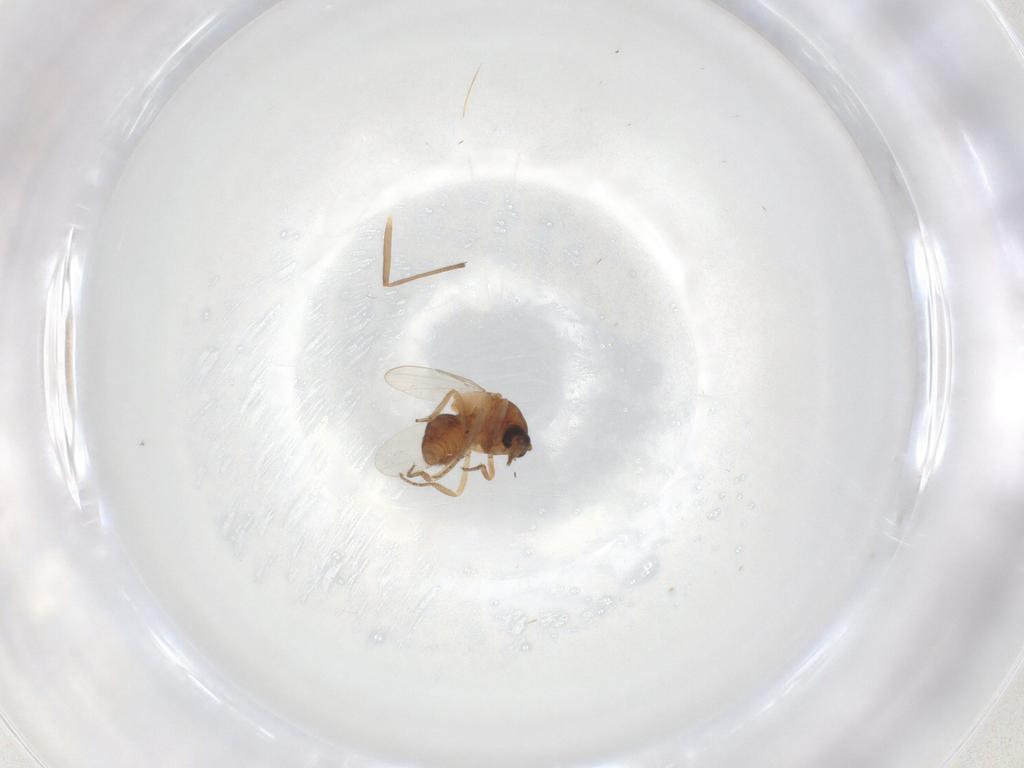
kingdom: Animalia
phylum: Arthropoda
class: Insecta
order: Diptera
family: Ceratopogonidae
